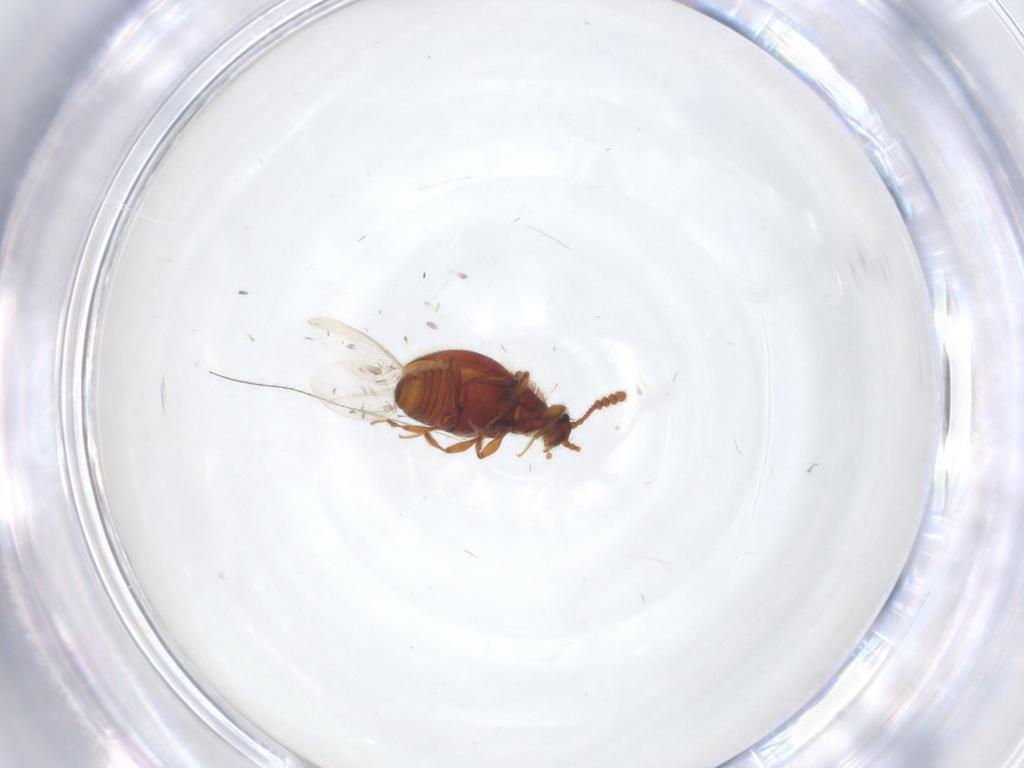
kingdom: Animalia
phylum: Arthropoda
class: Insecta
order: Coleoptera
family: Staphylinidae
